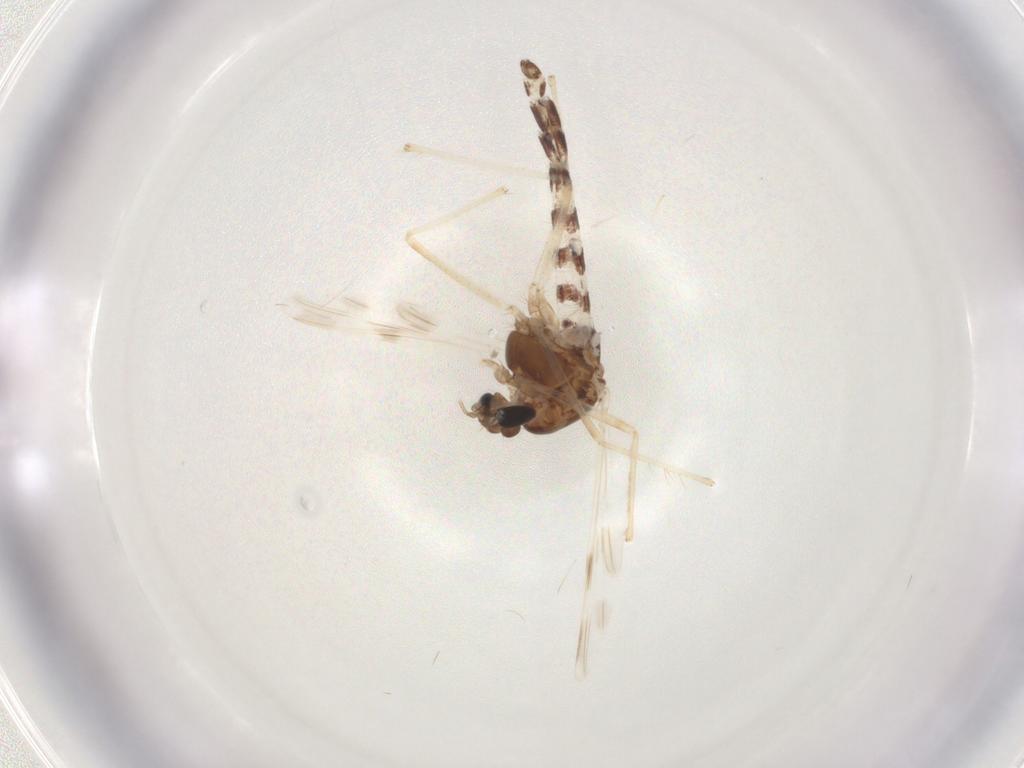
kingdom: Animalia
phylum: Arthropoda
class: Insecta
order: Diptera
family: Chironomidae
